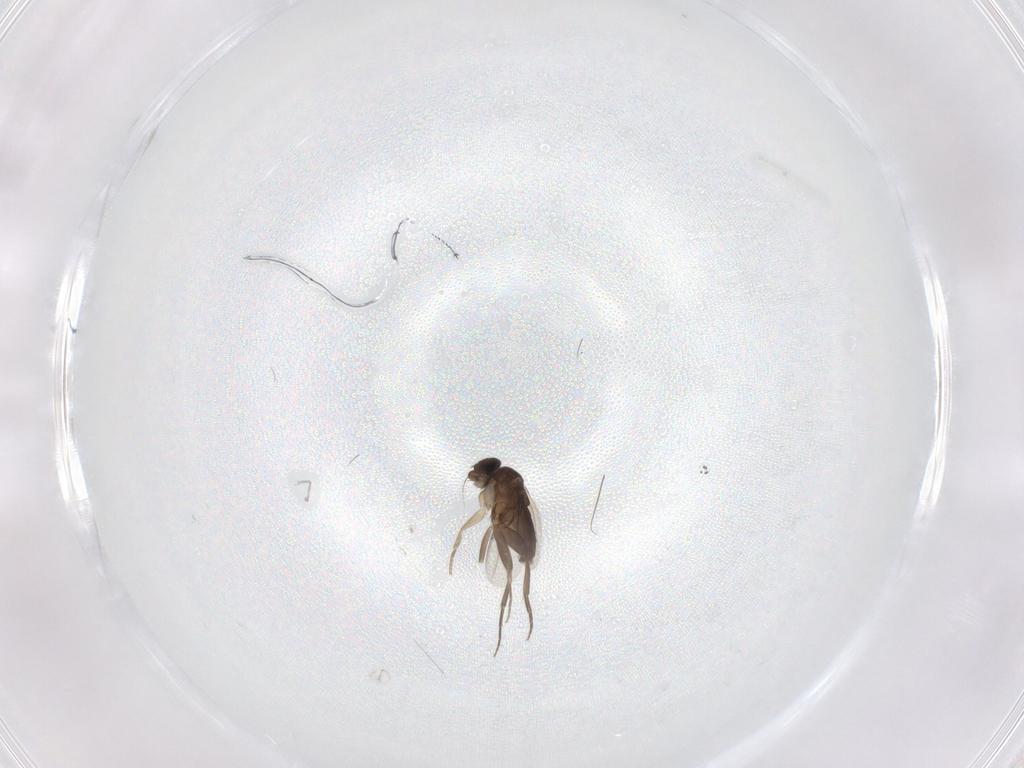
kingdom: Animalia
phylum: Arthropoda
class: Insecta
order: Diptera
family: Phoridae
